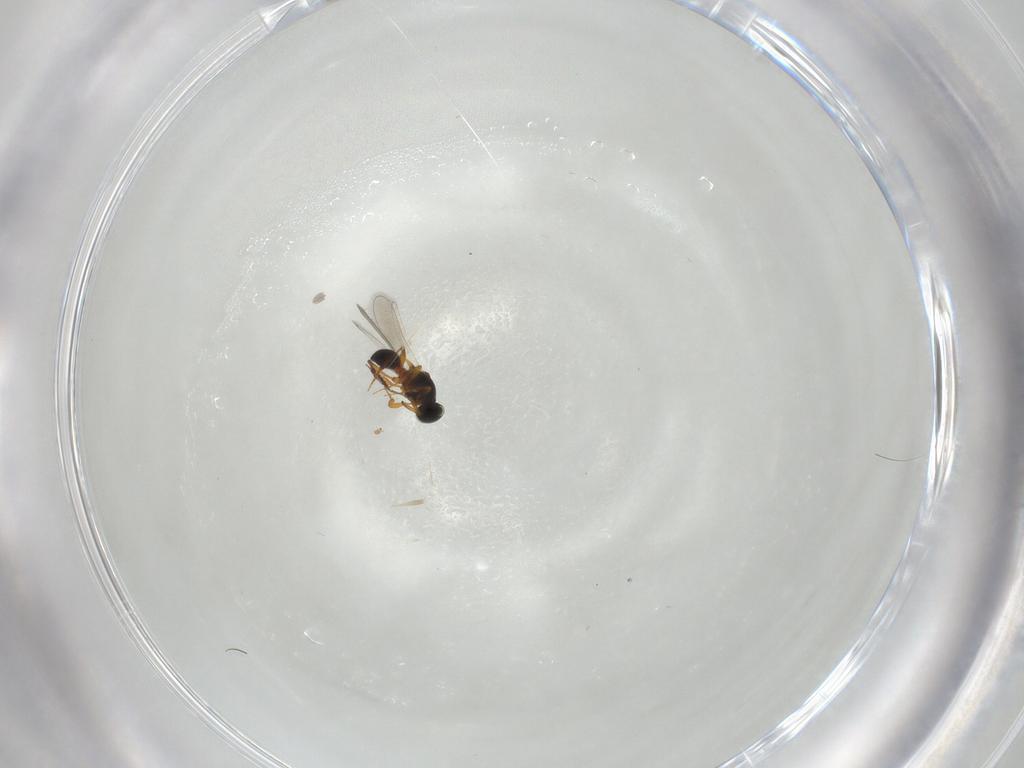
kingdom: Animalia
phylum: Arthropoda
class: Insecta
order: Hymenoptera
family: Platygastridae
